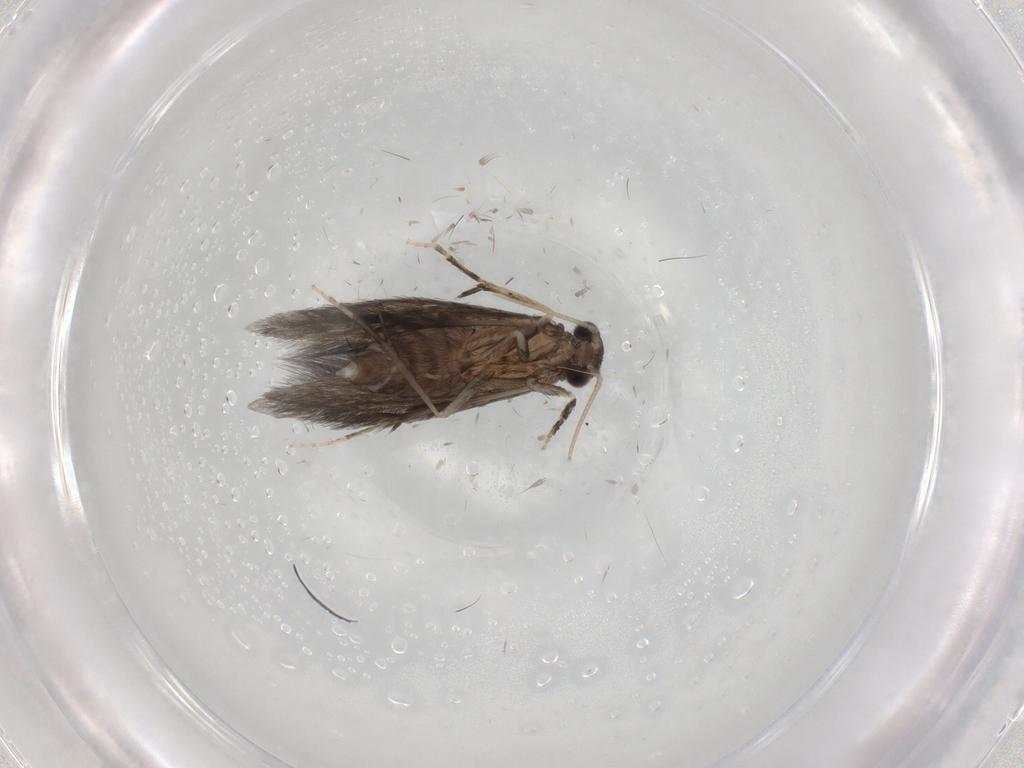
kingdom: Animalia
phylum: Arthropoda
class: Insecta
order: Trichoptera
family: Hydroptilidae
